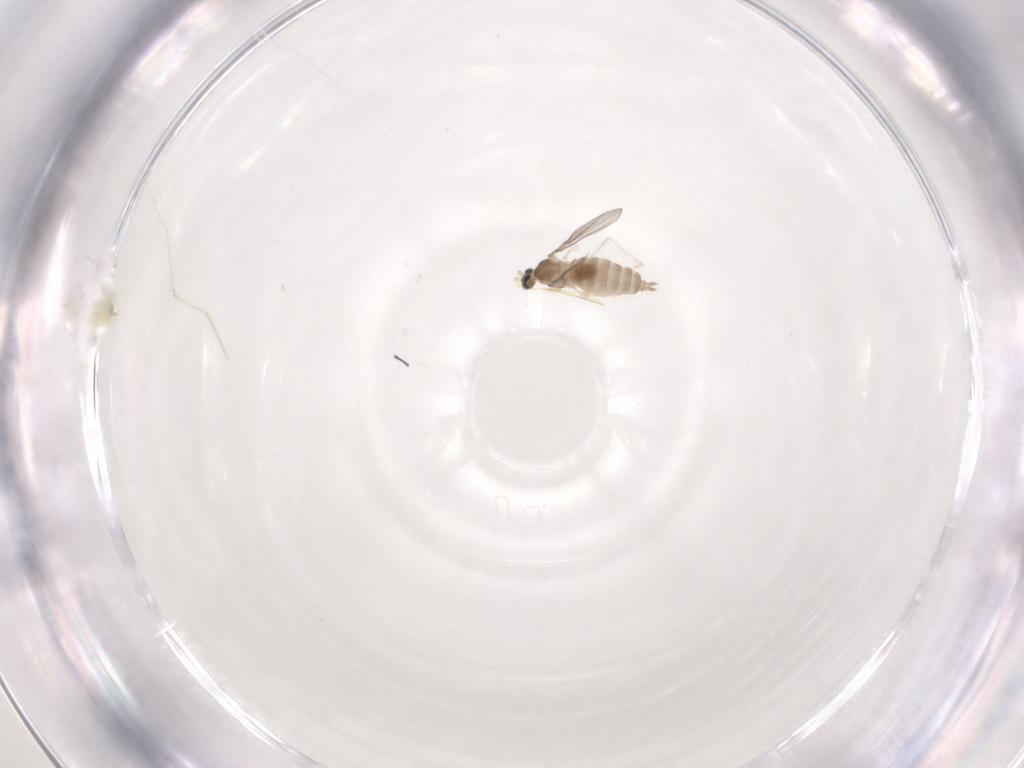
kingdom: Animalia
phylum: Arthropoda
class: Insecta
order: Diptera
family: Cecidomyiidae
